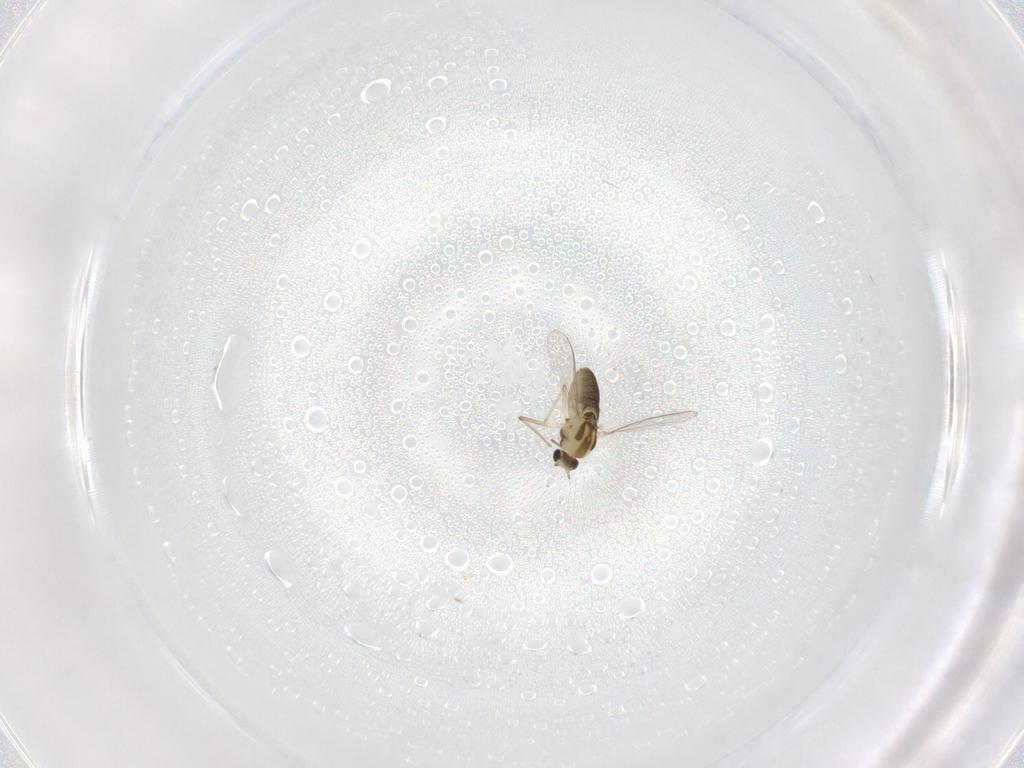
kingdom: Animalia
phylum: Arthropoda
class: Insecta
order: Diptera
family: Chironomidae
